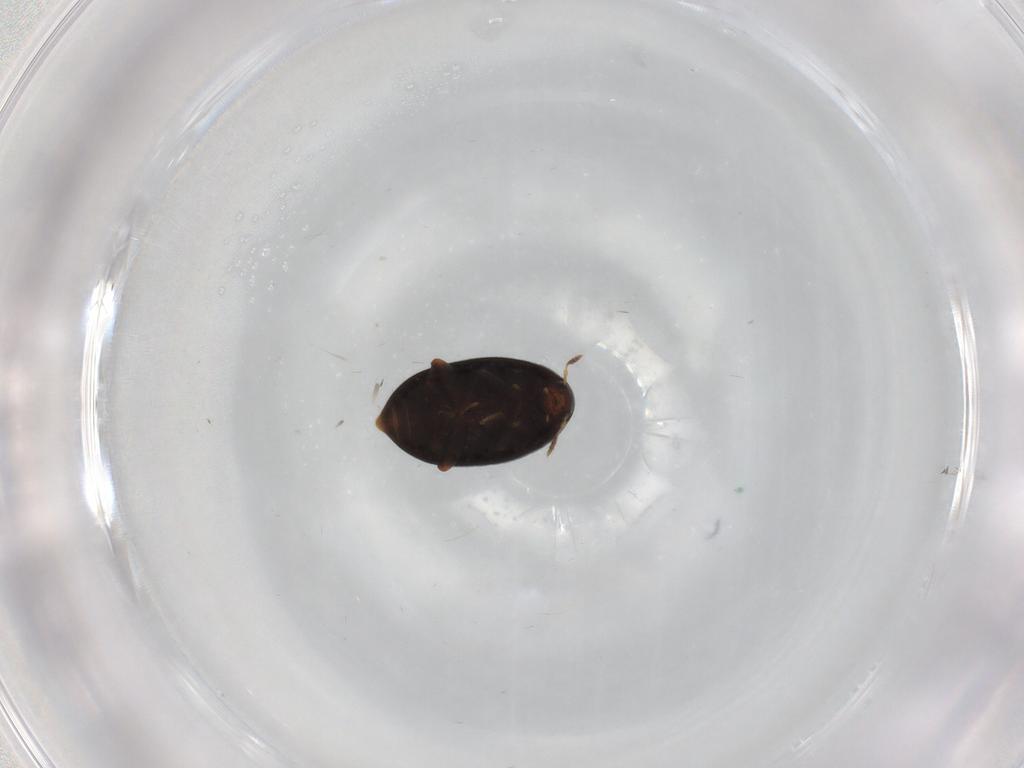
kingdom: Animalia
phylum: Arthropoda
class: Insecta
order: Coleoptera
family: Melandryidae
